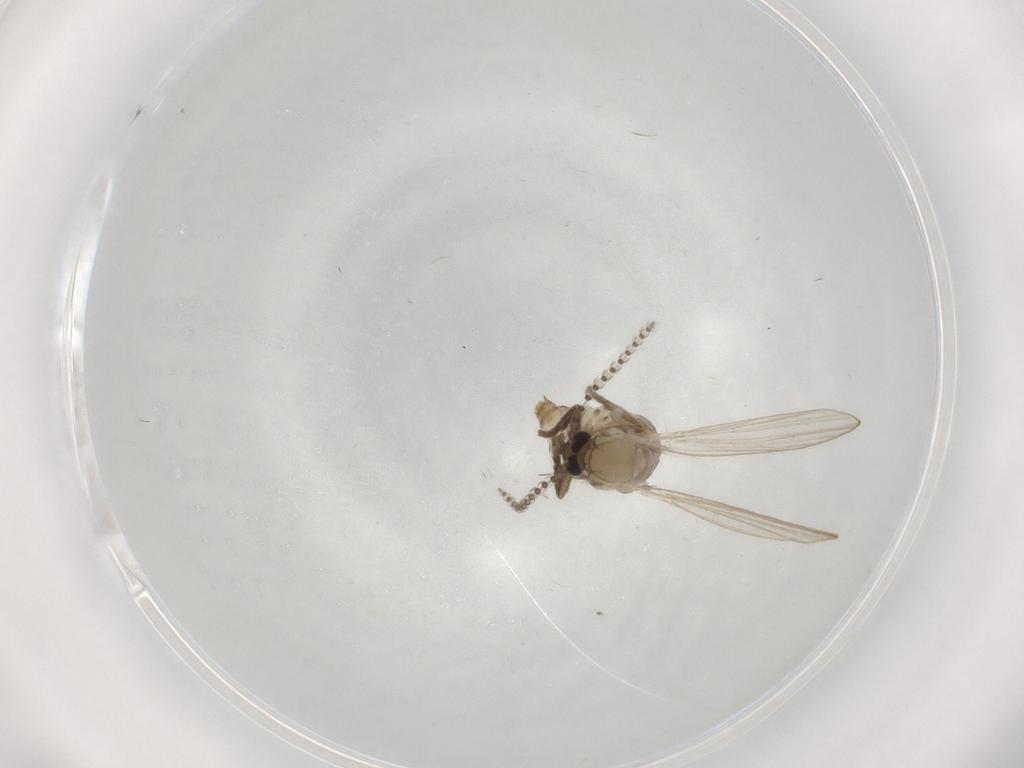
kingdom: Animalia
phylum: Arthropoda
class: Insecta
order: Diptera
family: Psychodidae
